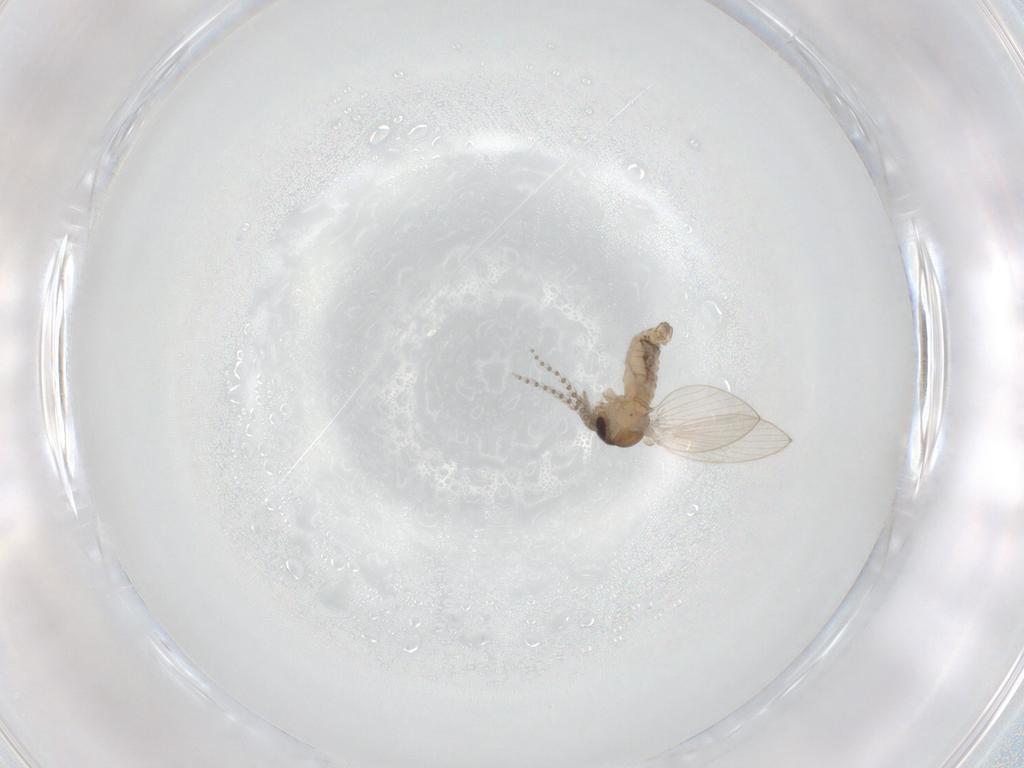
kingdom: Animalia
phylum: Arthropoda
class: Insecta
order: Diptera
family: Psychodidae
